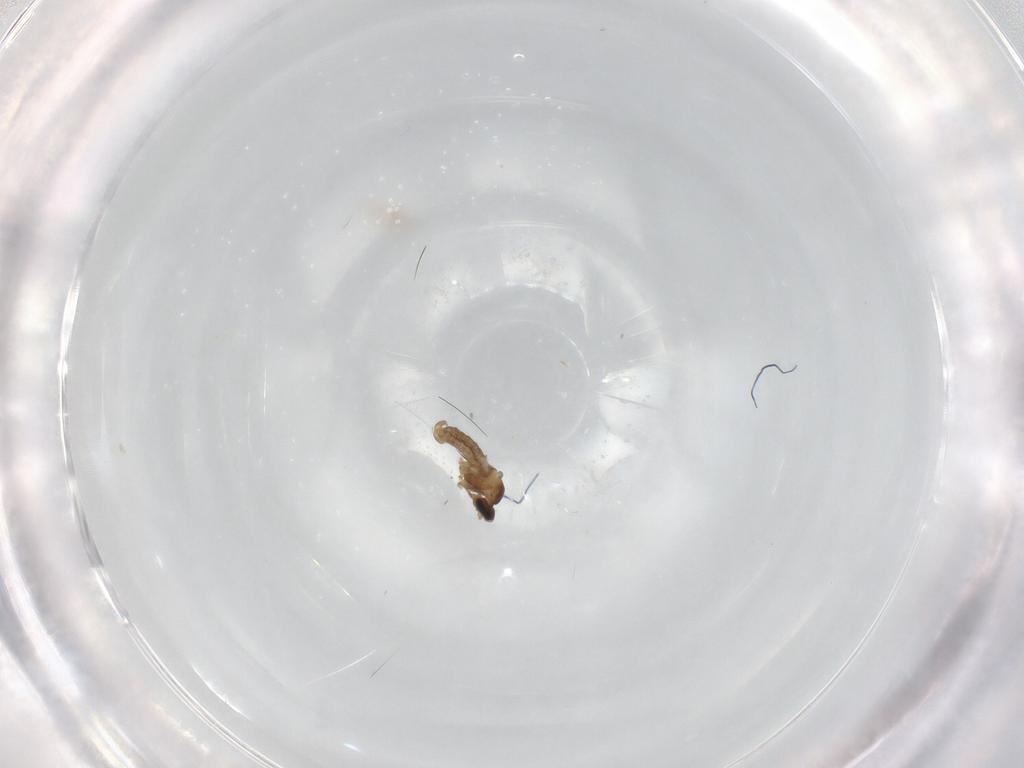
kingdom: Animalia
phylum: Arthropoda
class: Insecta
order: Diptera
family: Cecidomyiidae
